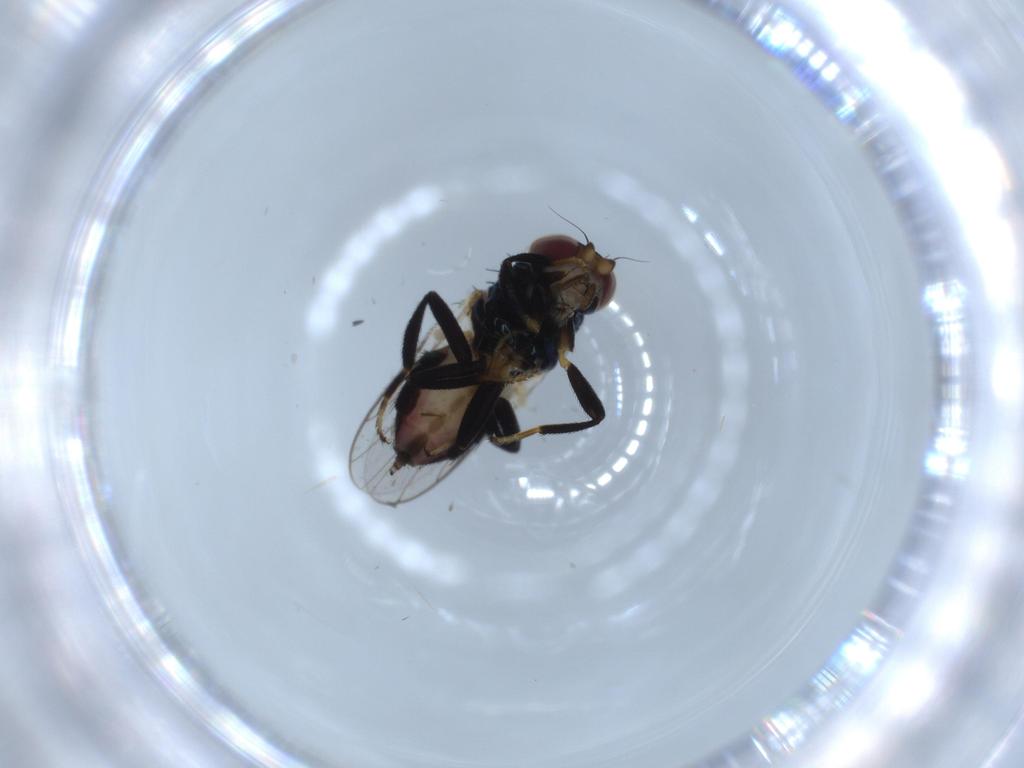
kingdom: Animalia
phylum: Arthropoda
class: Insecta
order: Diptera
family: Chloropidae
